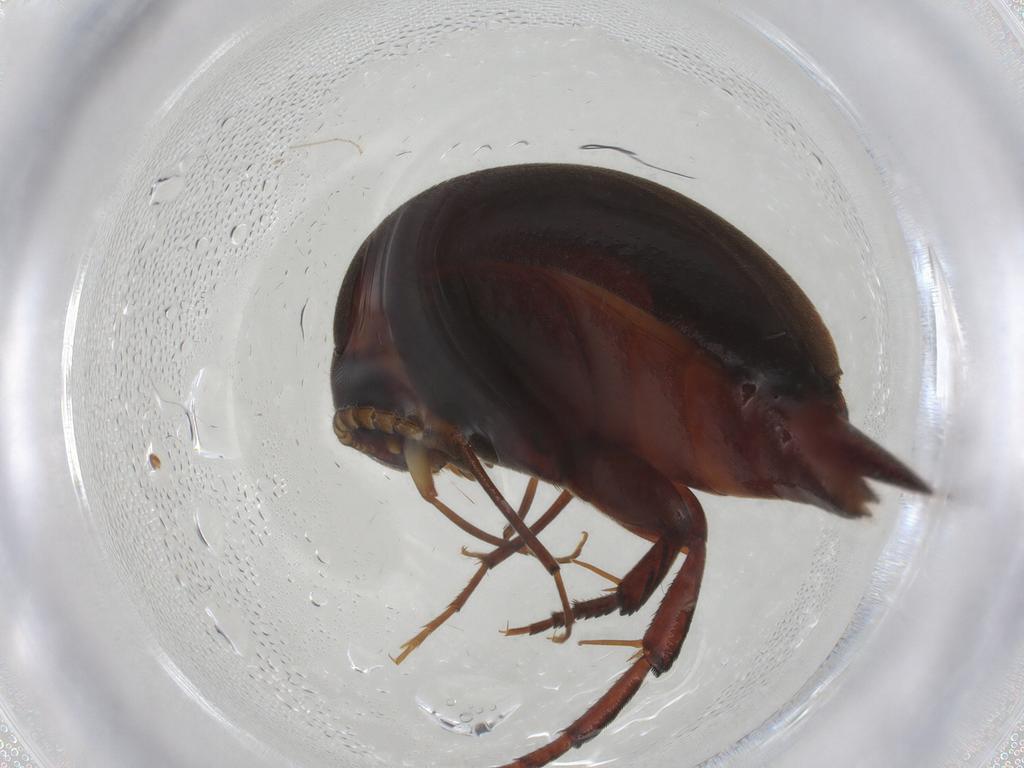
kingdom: Animalia
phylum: Arthropoda
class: Insecta
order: Coleoptera
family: Mordellidae
